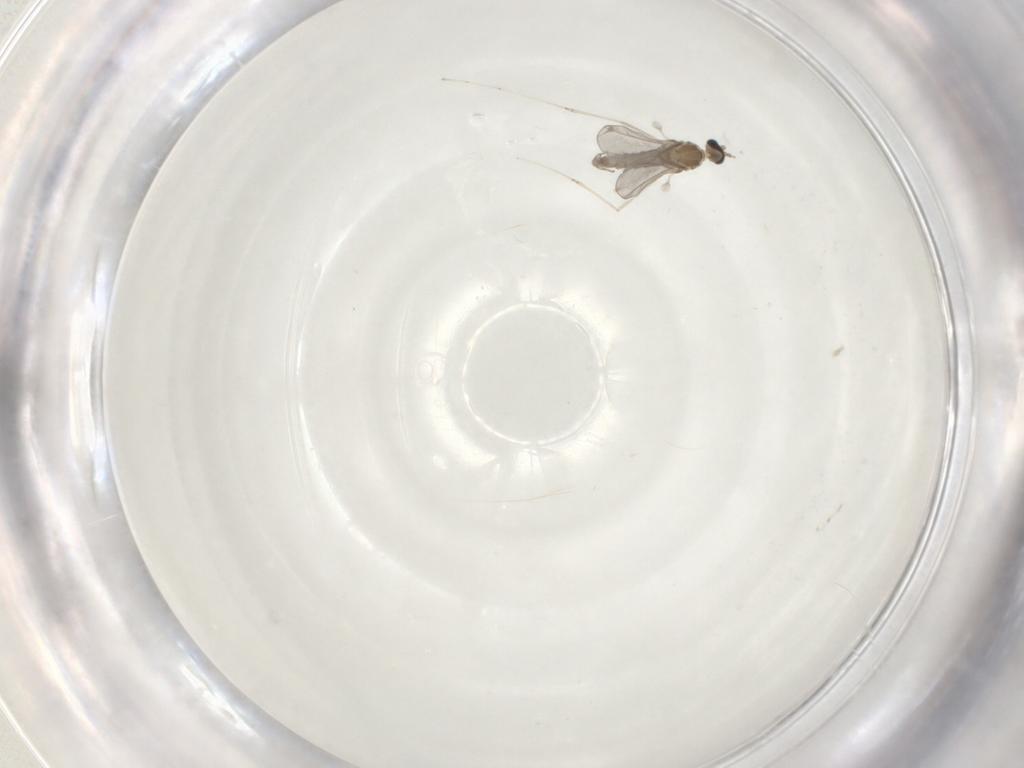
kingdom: Animalia
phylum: Arthropoda
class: Insecta
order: Diptera
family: Cecidomyiidae
